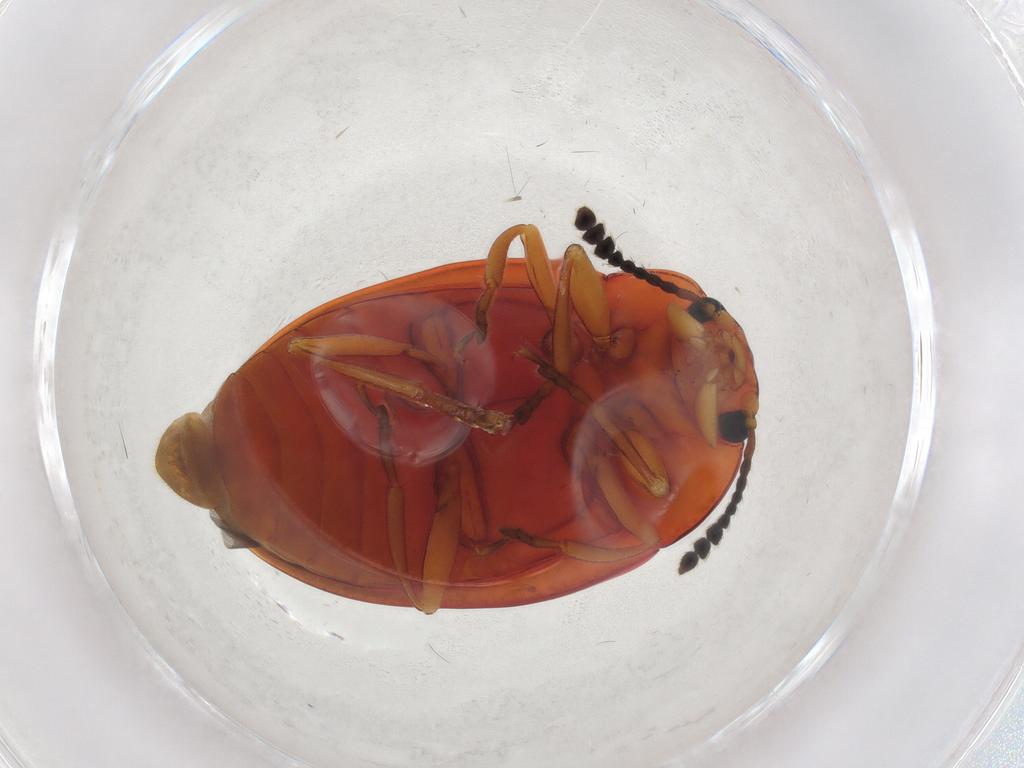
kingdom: Animalia
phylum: Arthropoda
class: Insecta
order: Coleoptera
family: Erotylidae
